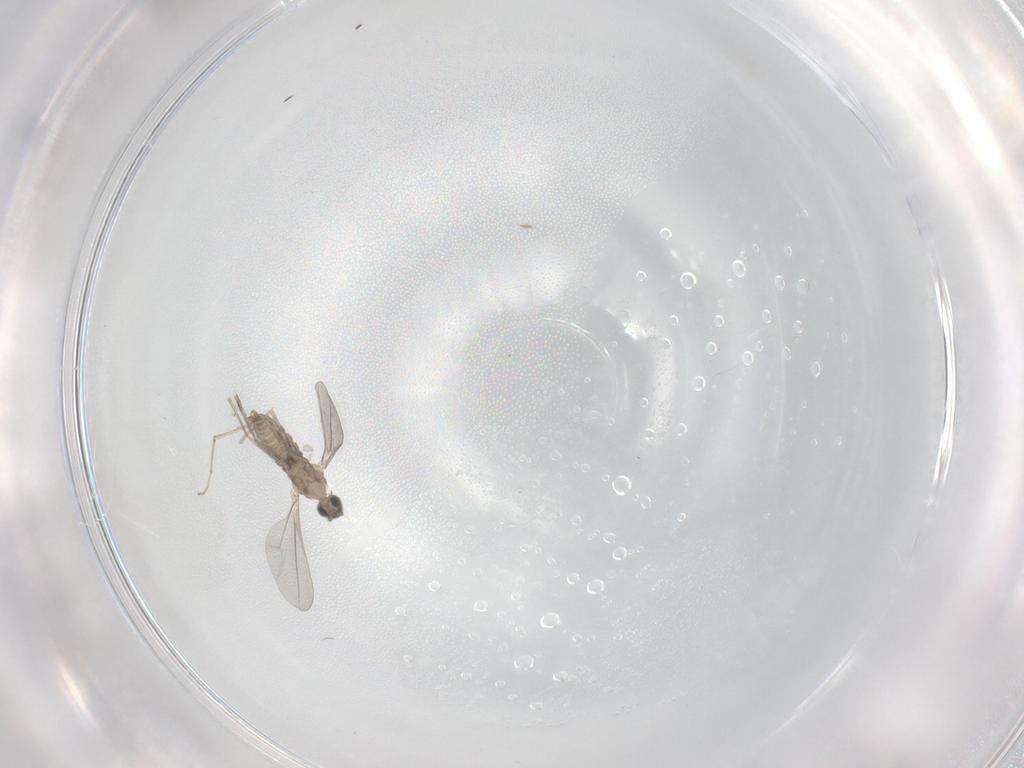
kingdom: Animalia
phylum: Arthropoda
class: Insecta
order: Diptera
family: Cecidomyiidae
